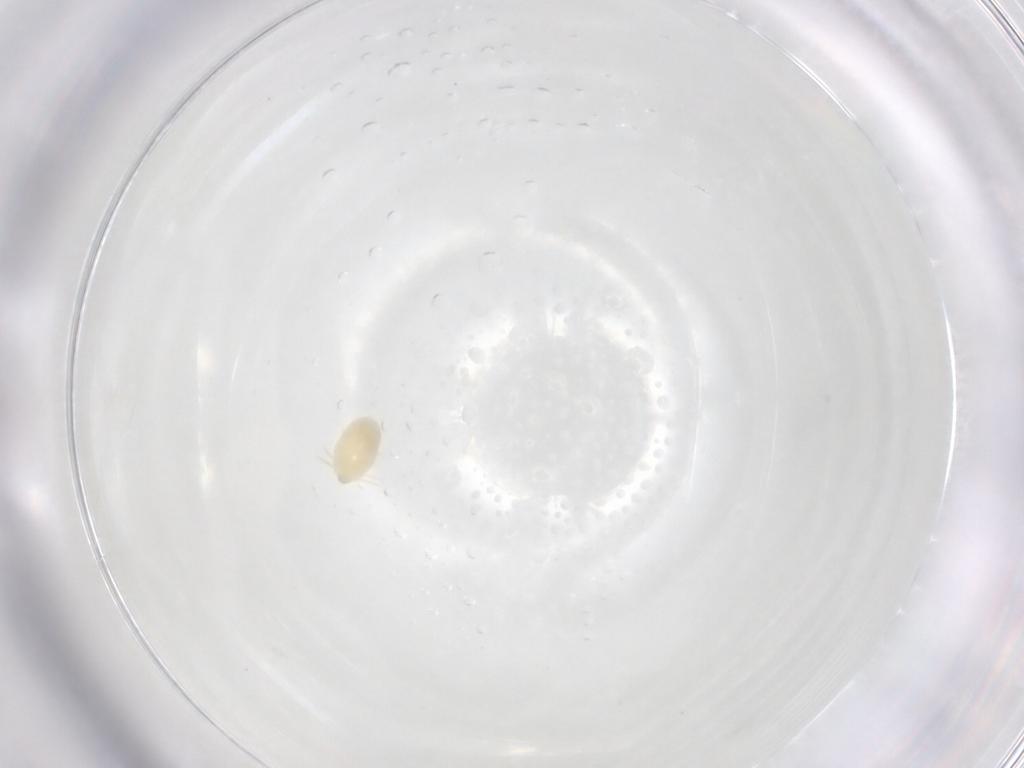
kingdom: Animalia
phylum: Arthropoda
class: Arachnida
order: Trombidiformes
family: Microtrombidiidae
